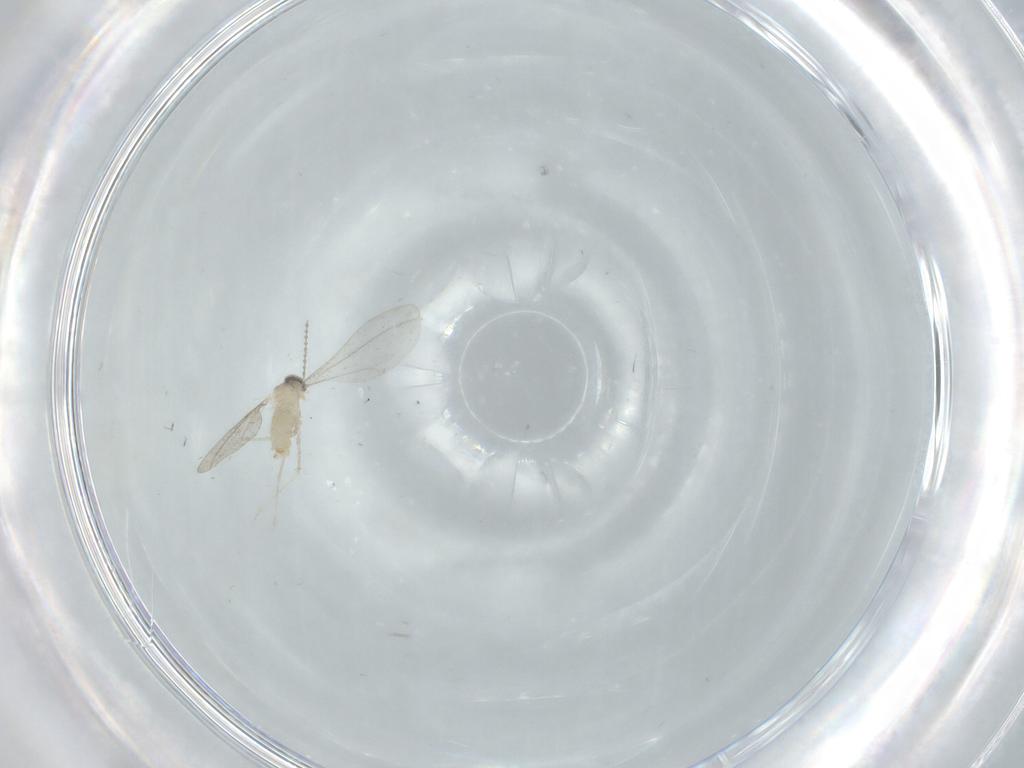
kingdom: Animalia
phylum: Arthropoda
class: Insecta
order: Diptera
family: Cecidomyiidae
